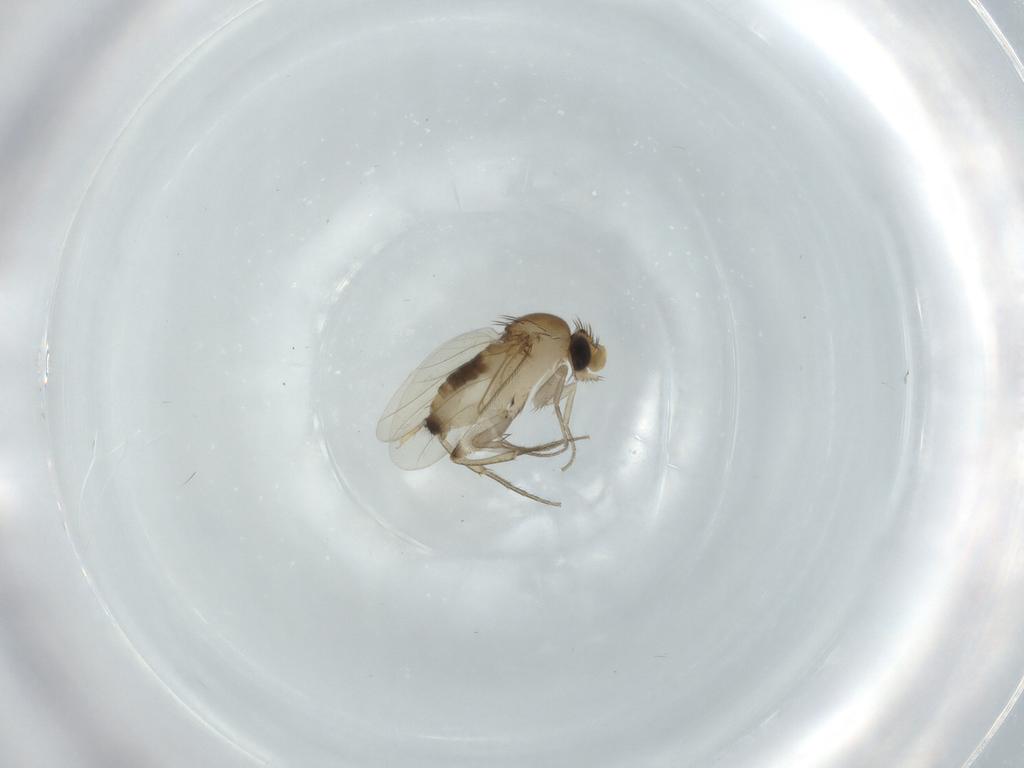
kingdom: Animalia
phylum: Arthropoda
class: Insecta
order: Diptera
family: Phoridae
